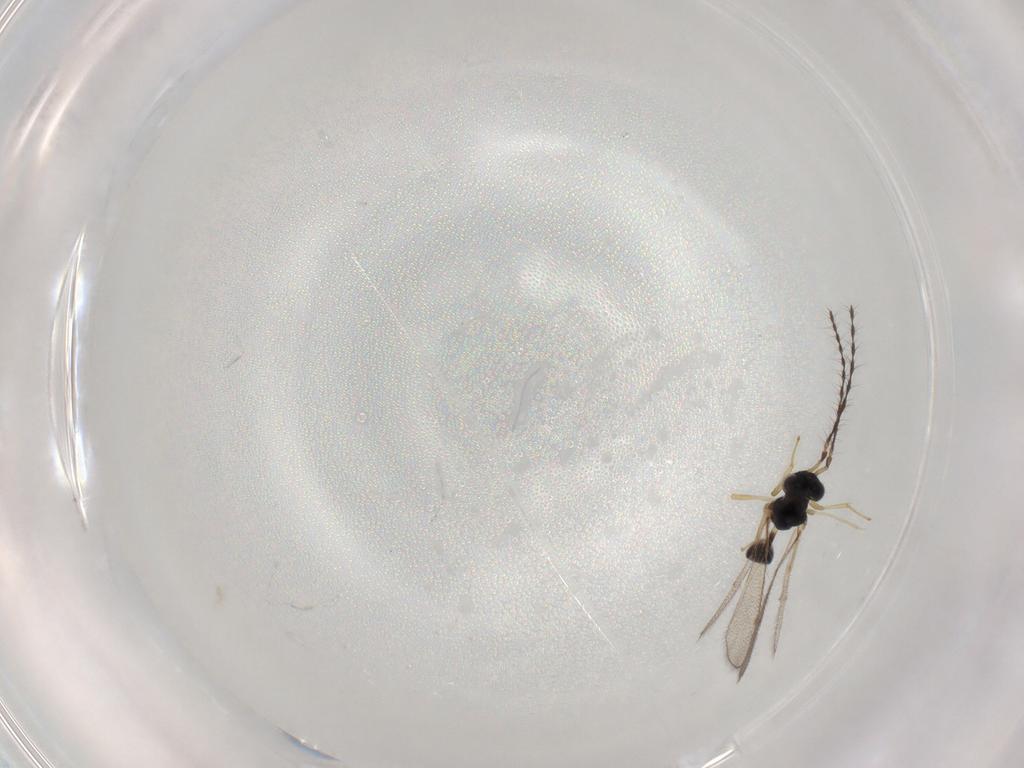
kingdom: Animalia
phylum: Arthropoda
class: Insecta
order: Hymenoptera
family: Diparidae
